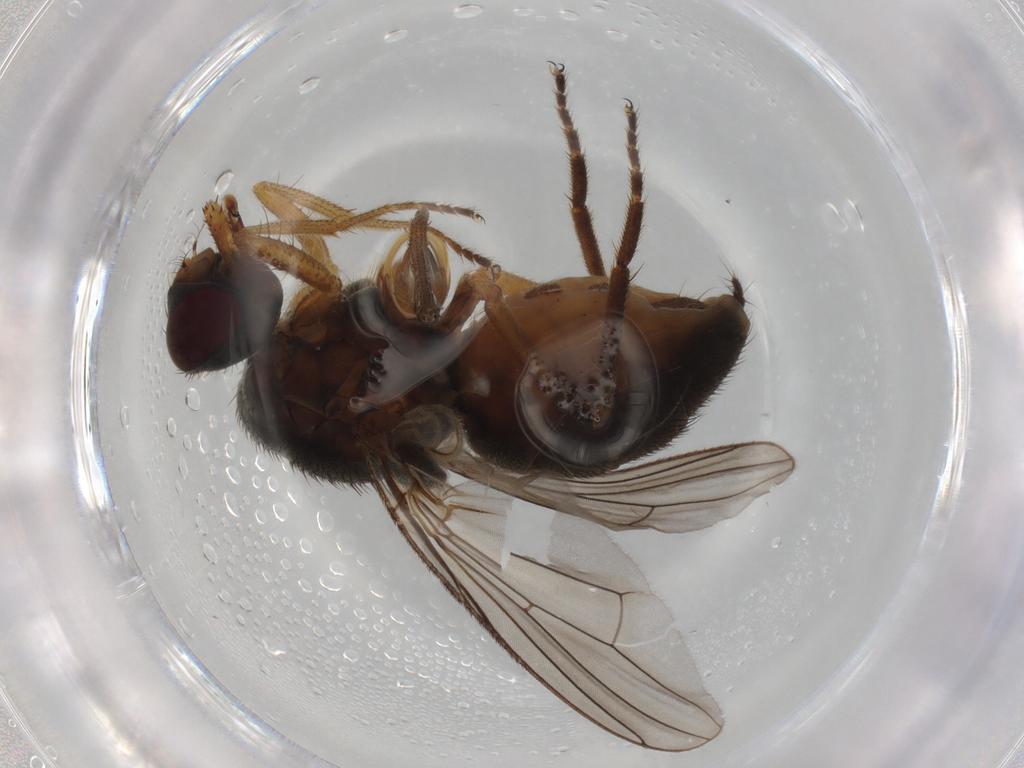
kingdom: Animalia
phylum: Arthropoda
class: Insecta
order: Diptera
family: Muscidae
